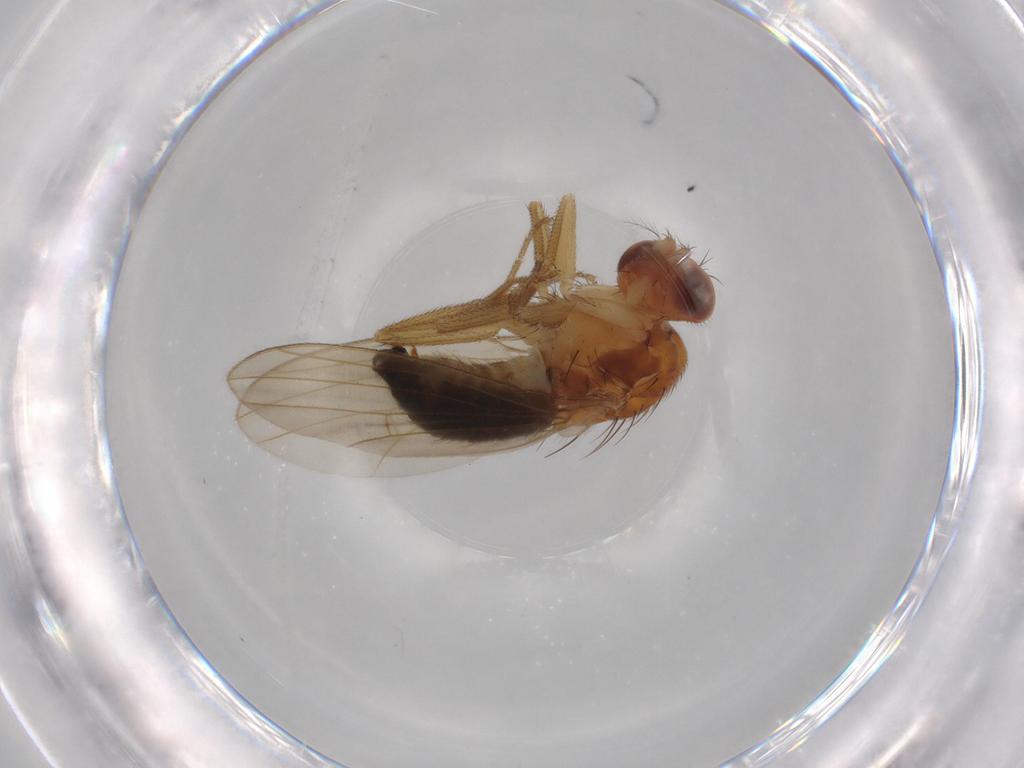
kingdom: Animalia
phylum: Arthropoda
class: Insecta
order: Diptera
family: Drosophilidae
